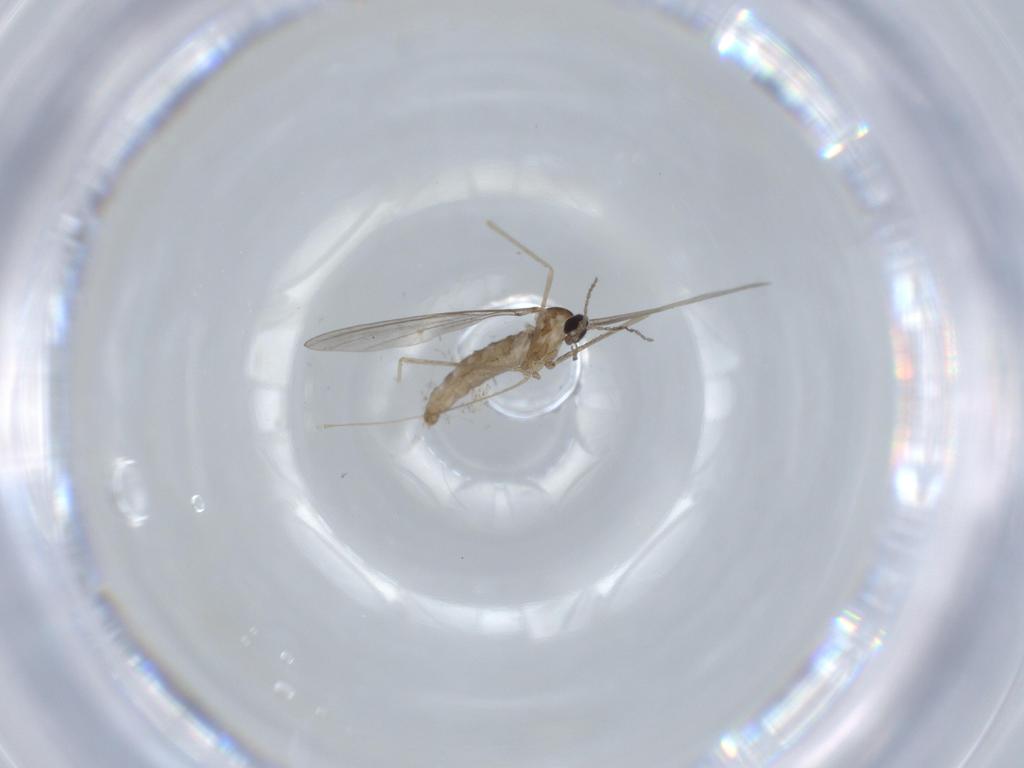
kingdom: Animalia
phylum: Arthropoda
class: Insecta
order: Diptera
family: Cecidomyiidae
